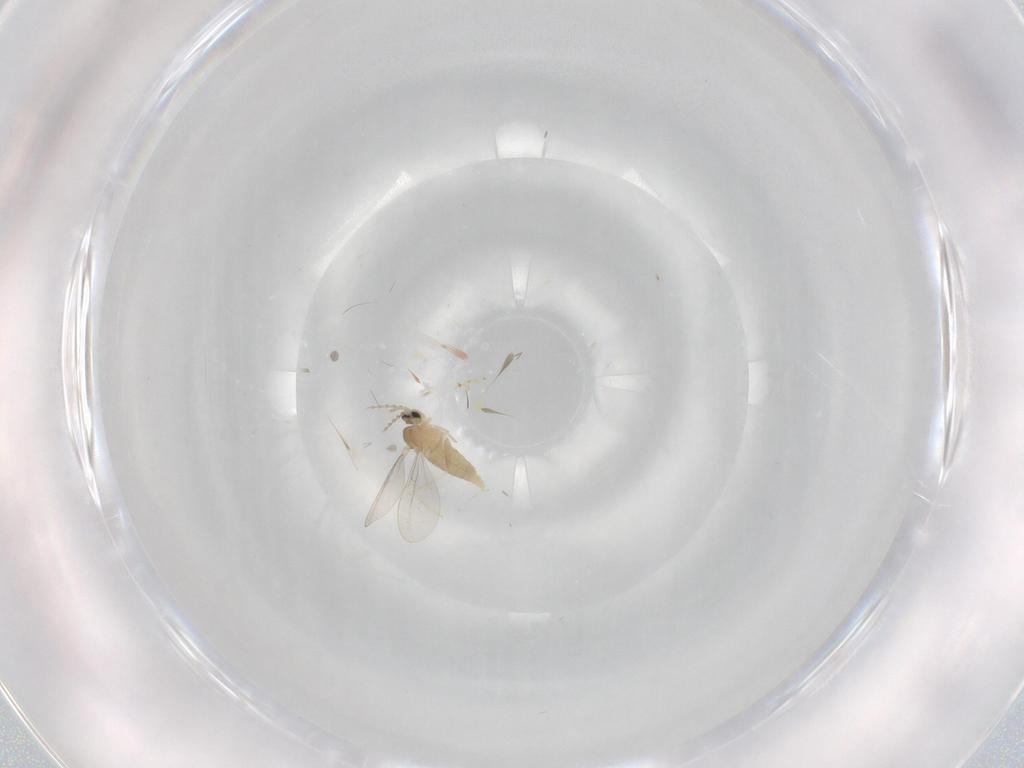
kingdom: Animalia
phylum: Arthropoda
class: Insecta
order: Diptera
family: Cecidomyiidae
